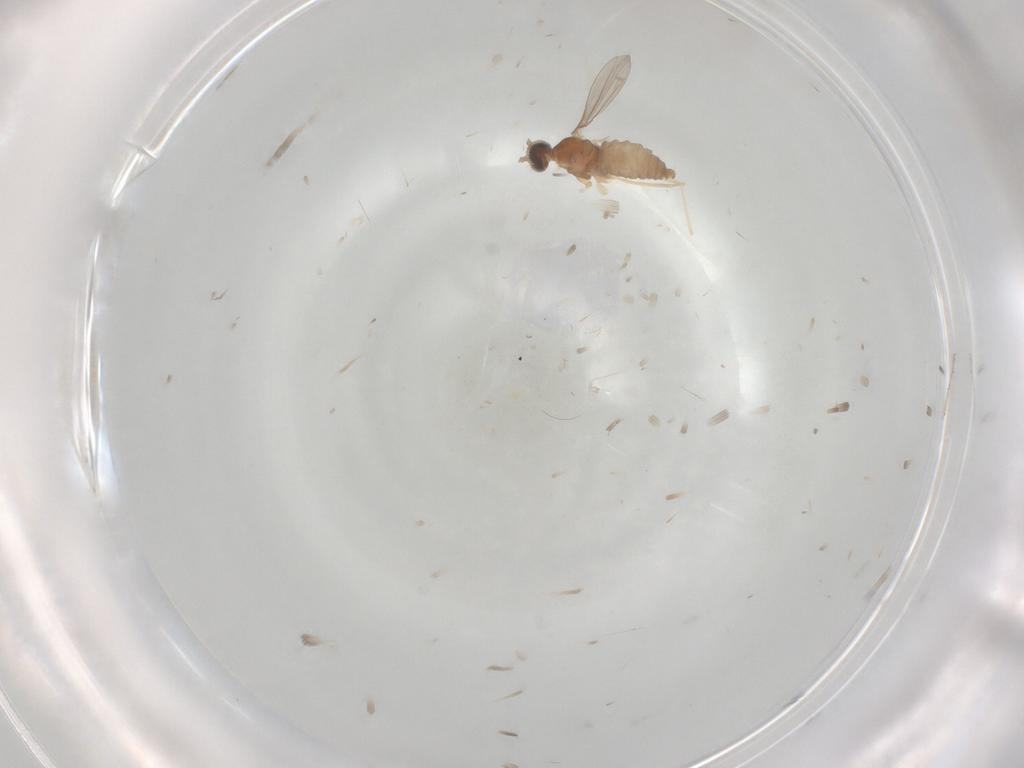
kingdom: Animalia
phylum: Arthropoda
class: Insecta
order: Diptera
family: Cecidomyiidae
